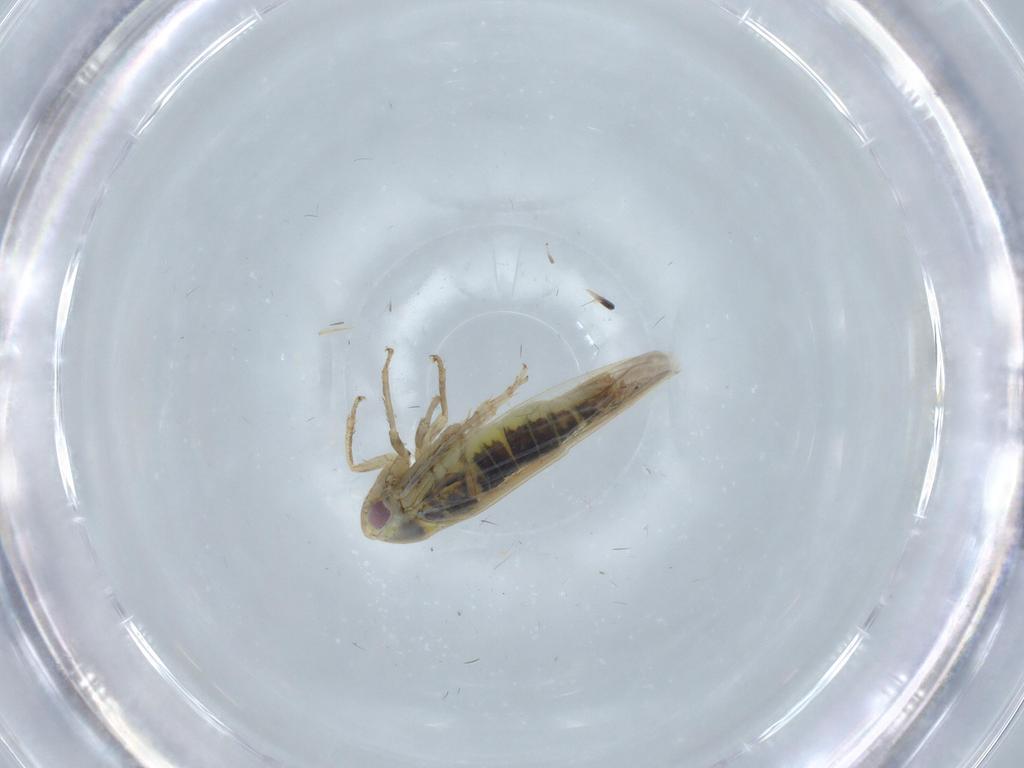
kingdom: Animalia
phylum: Arthropoda
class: Insecta
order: Hemiptera
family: Cicadellidae
